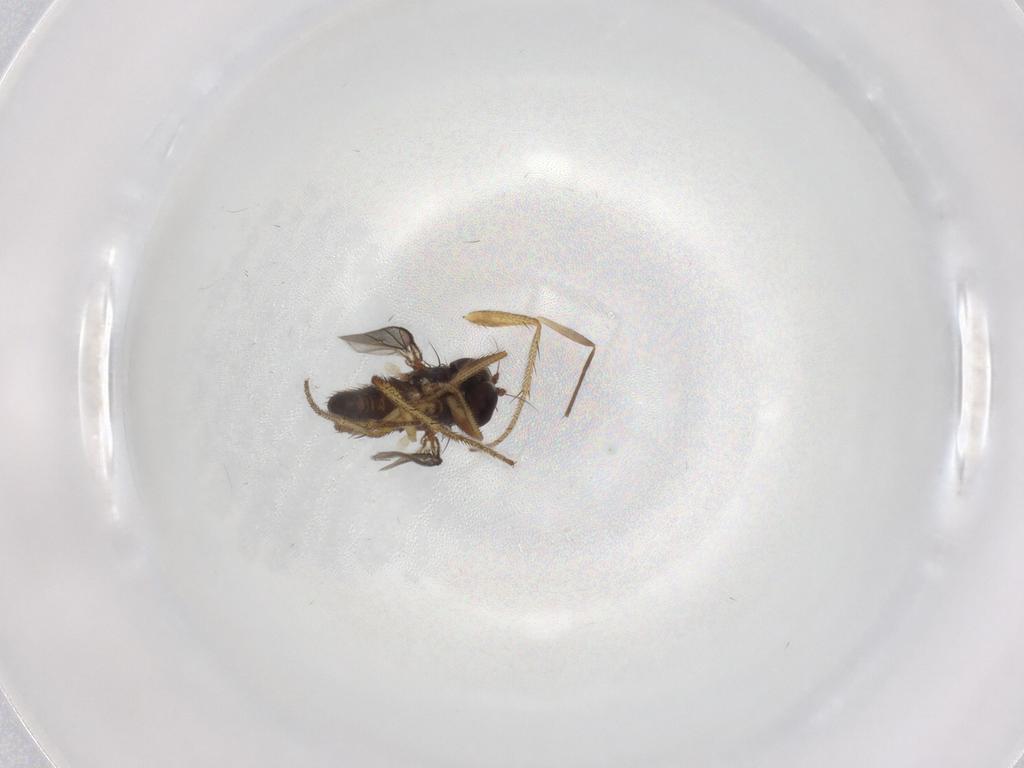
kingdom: Animalia
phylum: Arthropoda
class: Insecta
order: Diptera
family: Dolichopodidae
